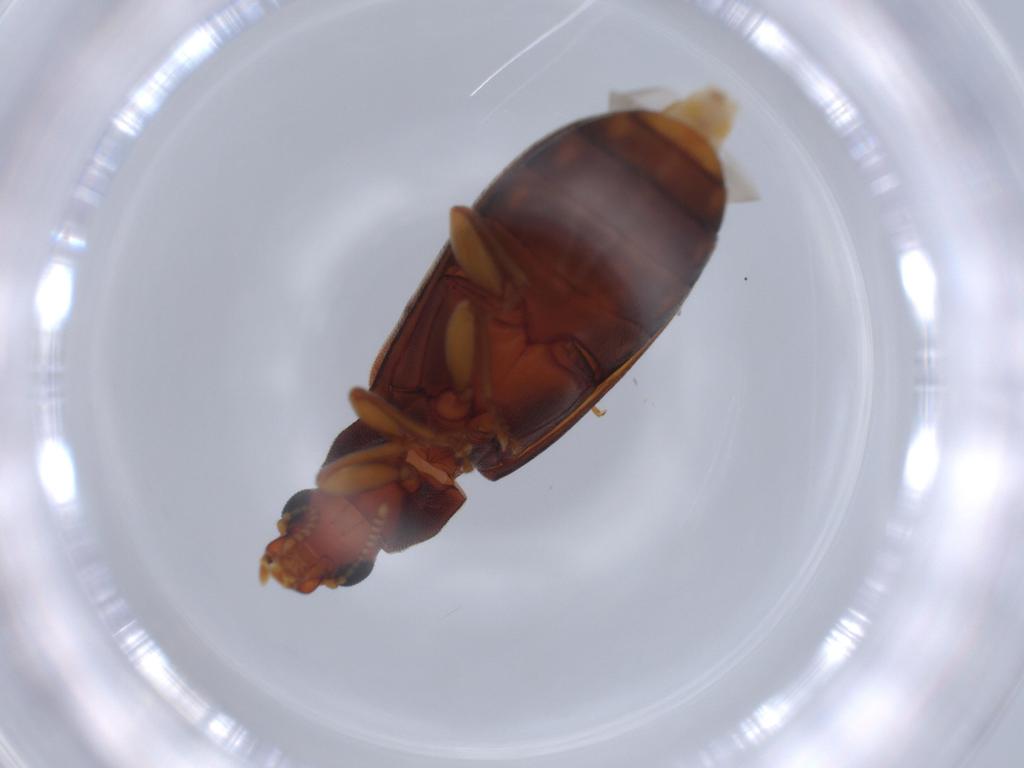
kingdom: Animalia
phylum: Arthropoda
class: Insecta
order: Coleoptera
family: Mycteridae
